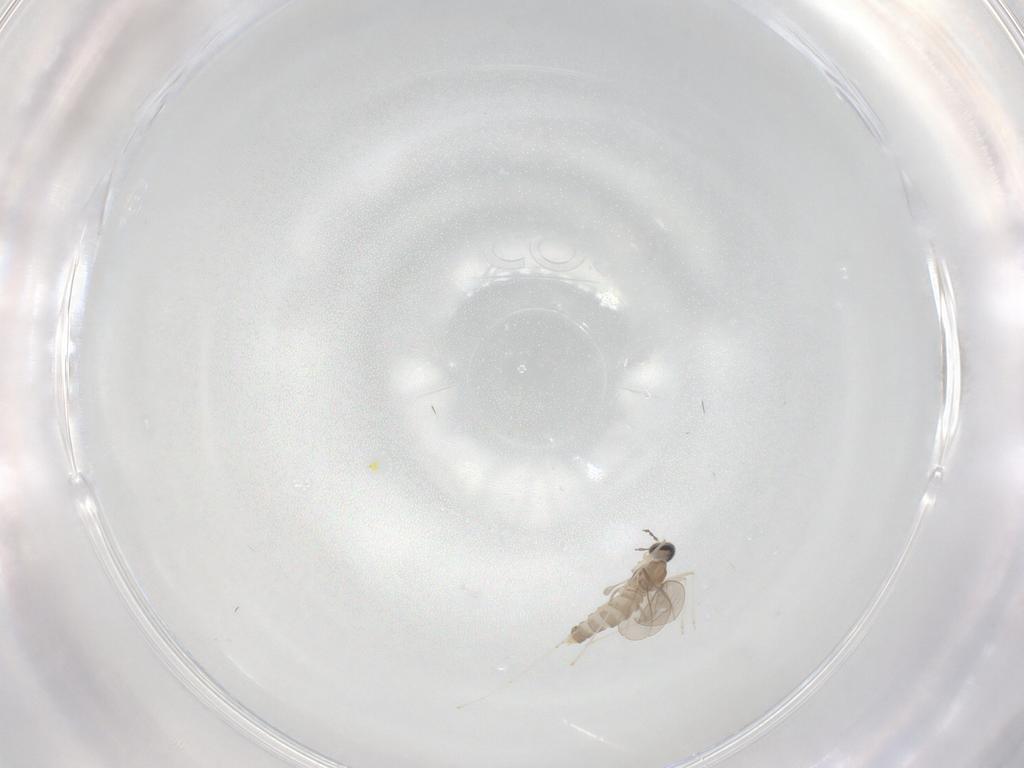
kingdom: Animalia
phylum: Arthropoda
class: Insecta
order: Diptera
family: Cecidomyiidae
